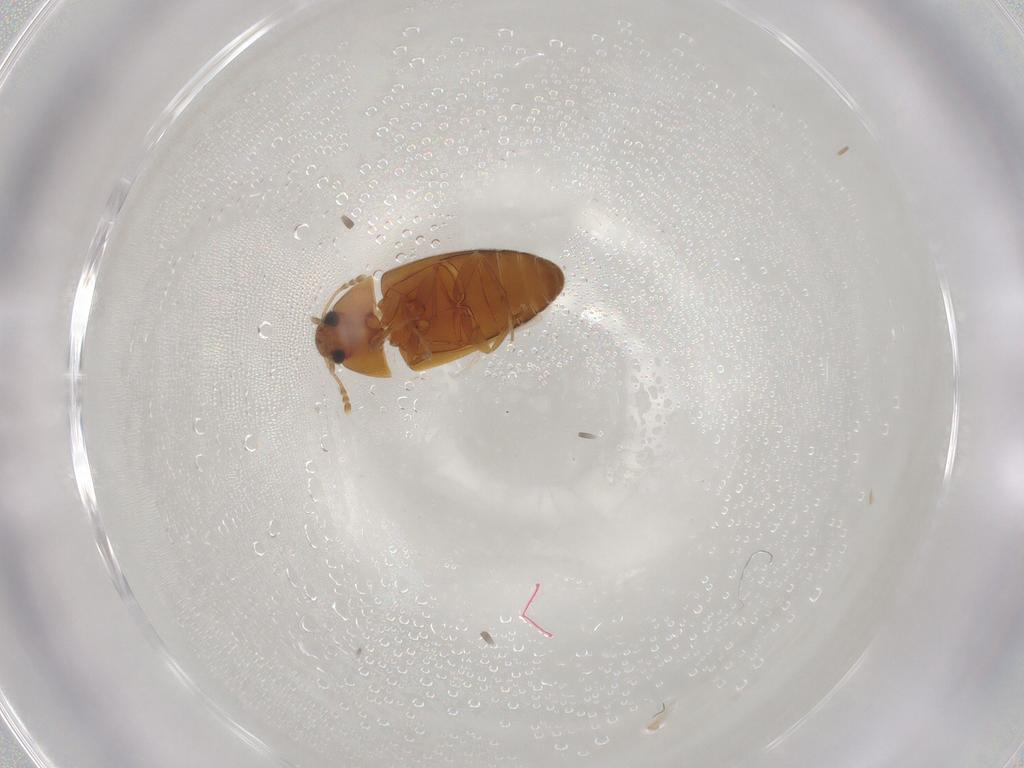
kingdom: Animalia
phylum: Arthropoda
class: Insecta
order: Coleoptera
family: Mycetophagidae
